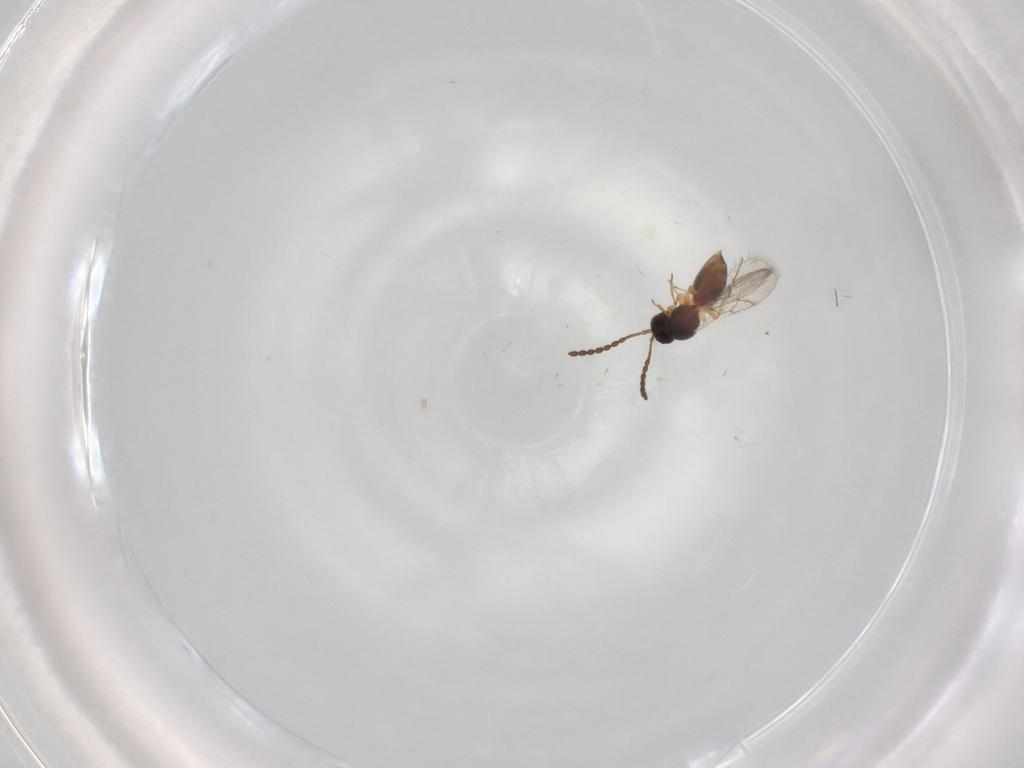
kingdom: Animalia
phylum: Arthropoda
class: Insecta
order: Hymenoptera
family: Figitidae
